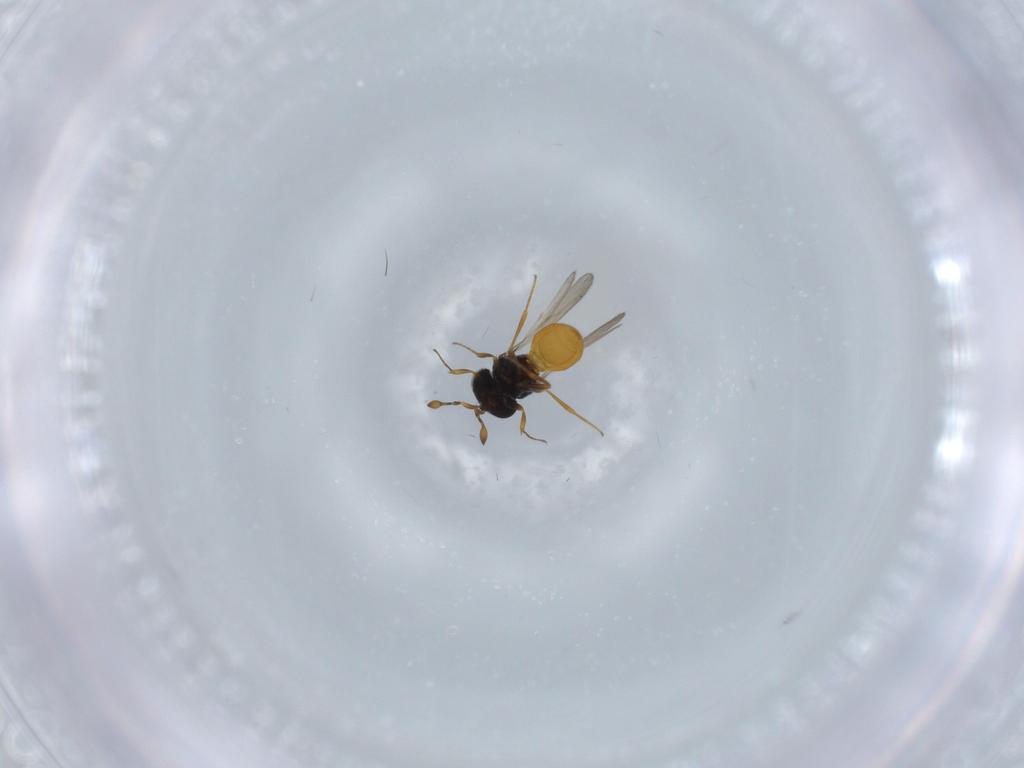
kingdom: Animalia
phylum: Arthropoda
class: Insecta
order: Hymenoptera
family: Scelionidae
